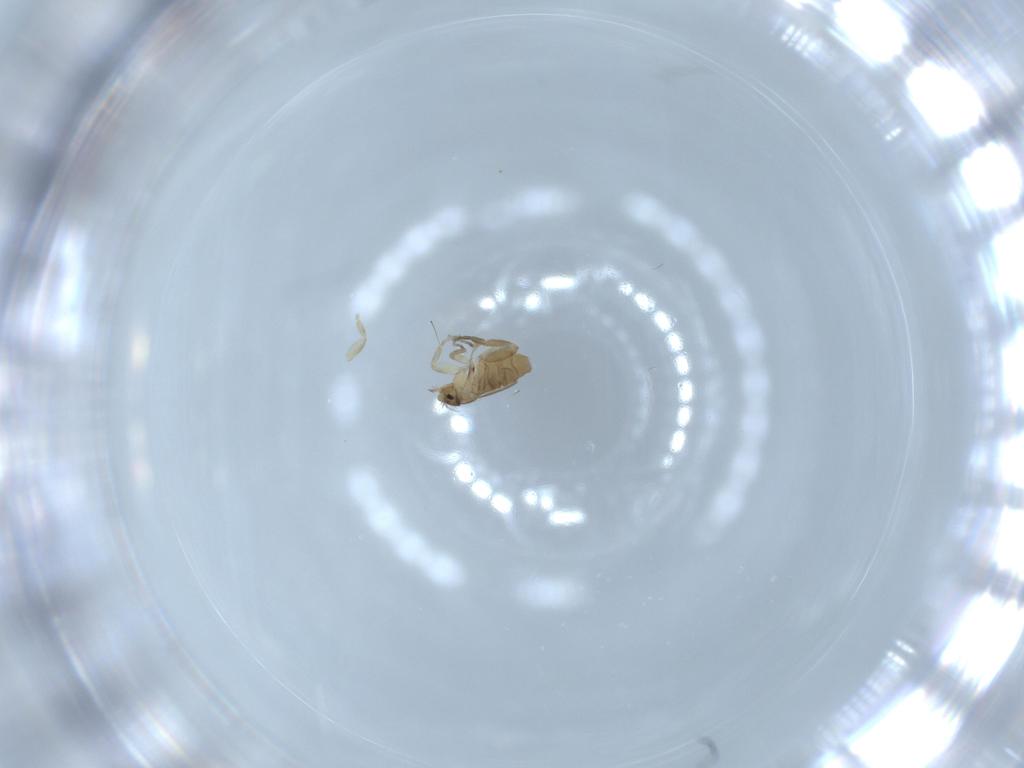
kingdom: Animalia
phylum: Arthropoda
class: Insecta
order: Diptera
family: Phoridae
